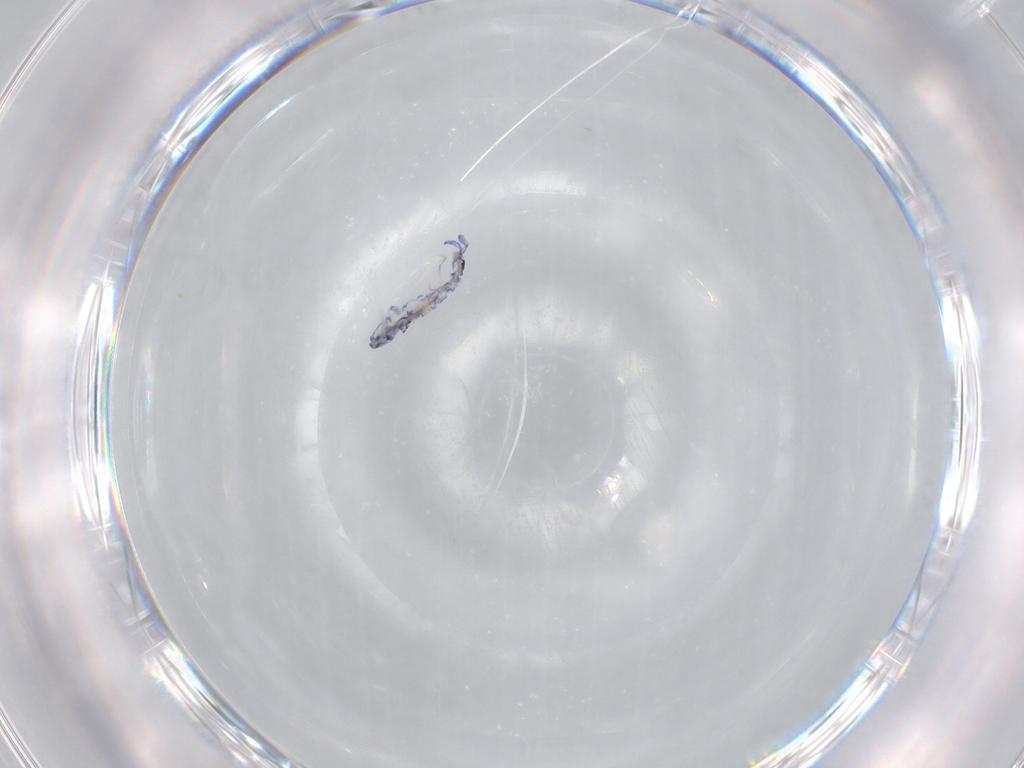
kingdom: Animalia
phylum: Arthropoda
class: Collembola
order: Entomobryomorpha
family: Entomobryidae
